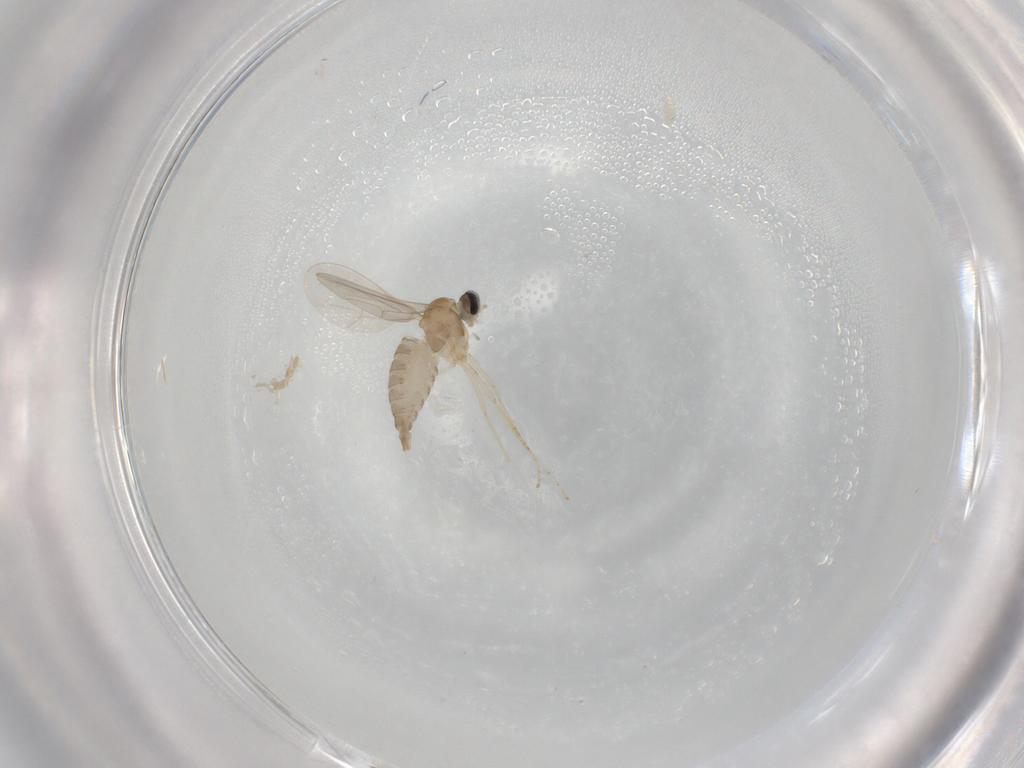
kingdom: Animalia
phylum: Arthropoda
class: Insecta
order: Diptera
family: Cecidomyiidae
